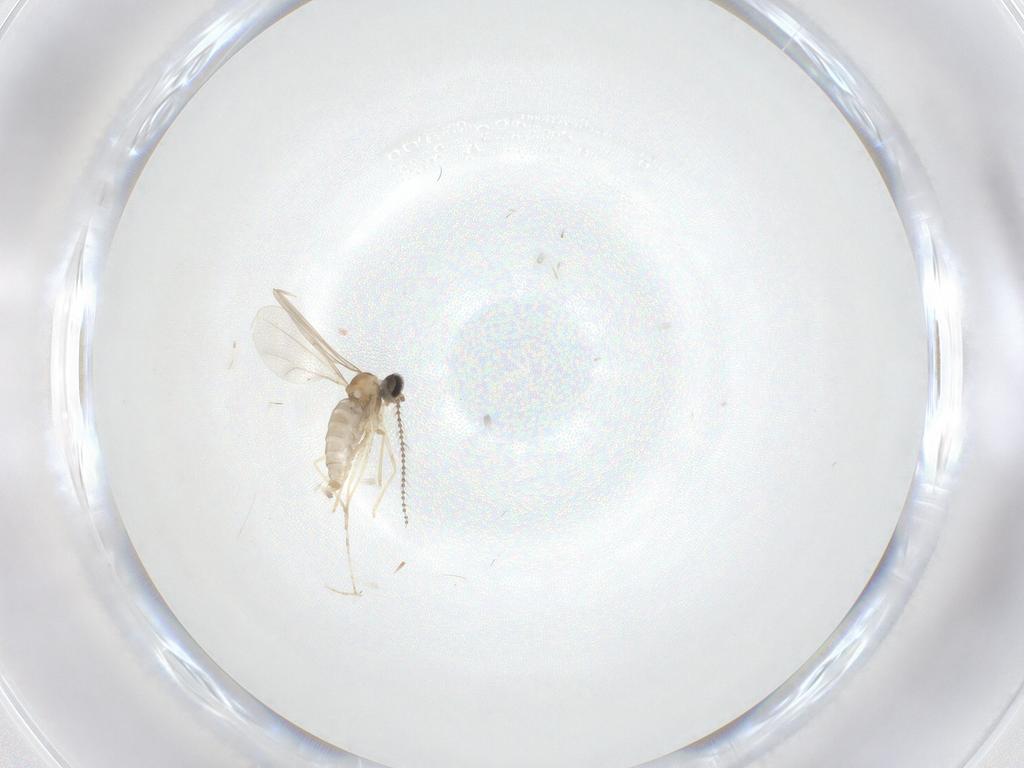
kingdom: Animalia
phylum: Arthropoda
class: Insecta
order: Diptera
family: Cecidomyiidae
